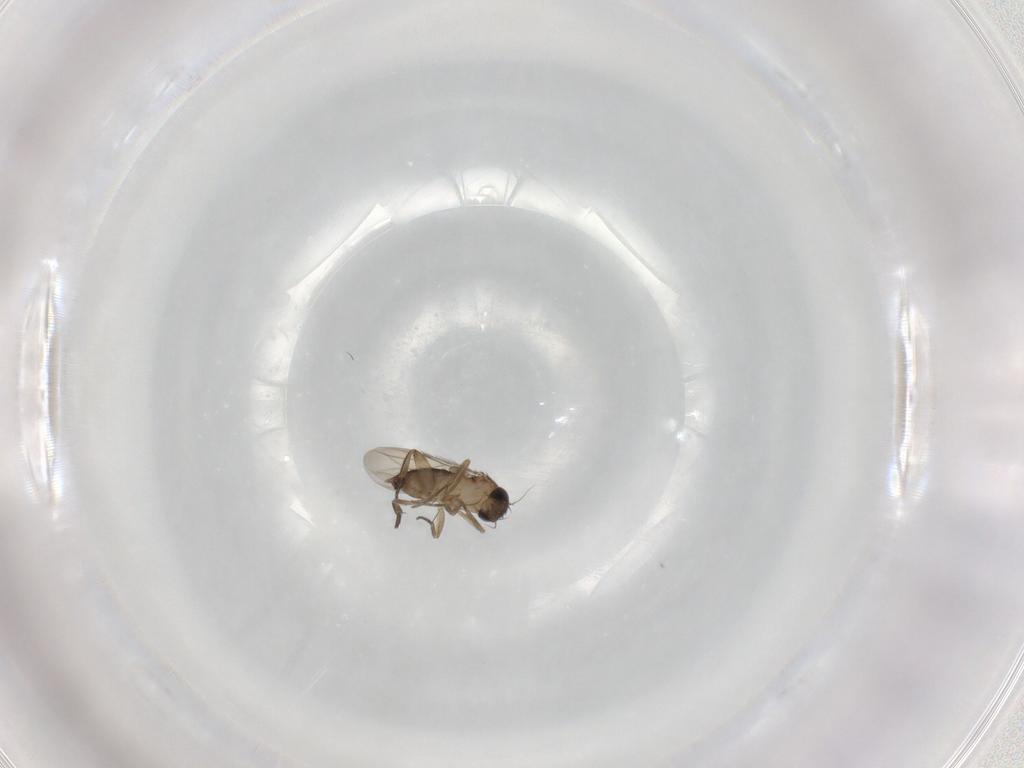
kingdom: Animalia
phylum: Arthropoda
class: Insecta
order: Diptera
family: Phoridae
